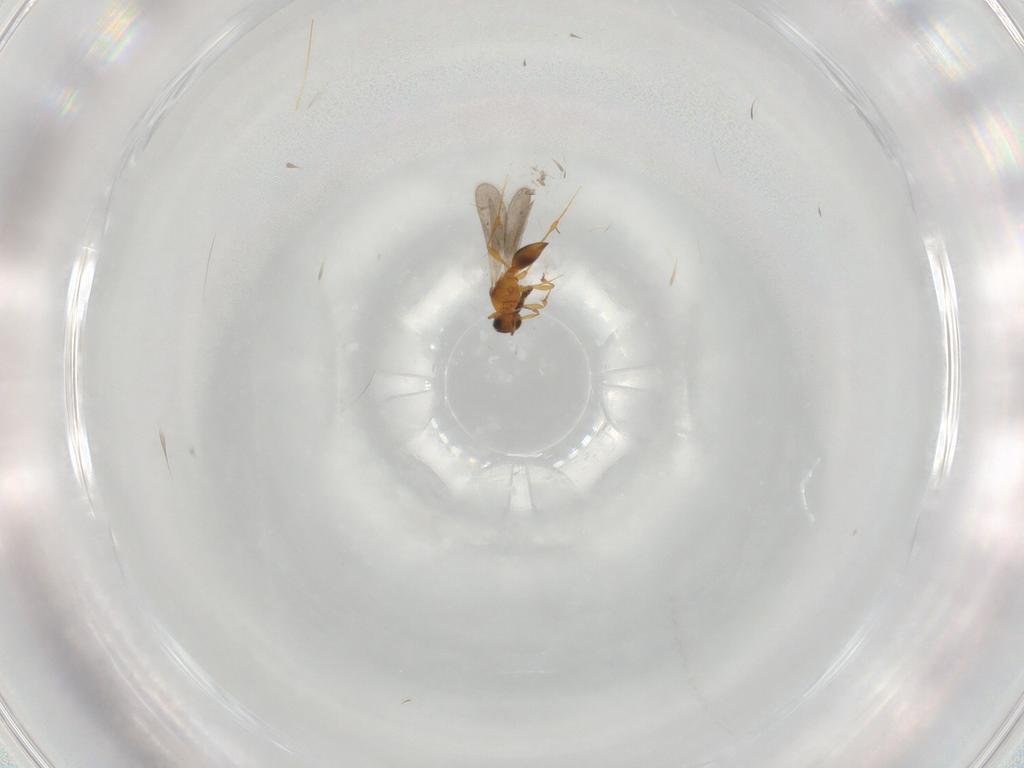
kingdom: Animalia
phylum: Arthropoda
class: Insecta
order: Hymenoptera
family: Platygastridae
